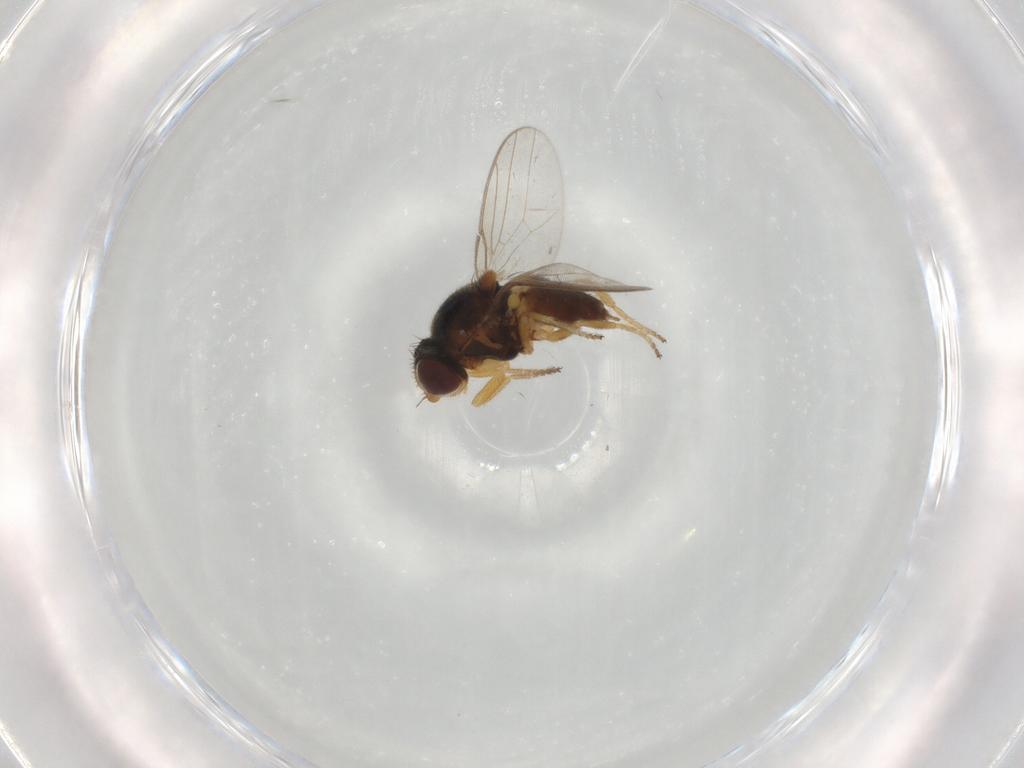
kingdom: Animalia
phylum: Arthropoda
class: Insecta
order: Diptera
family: Chloropidae
